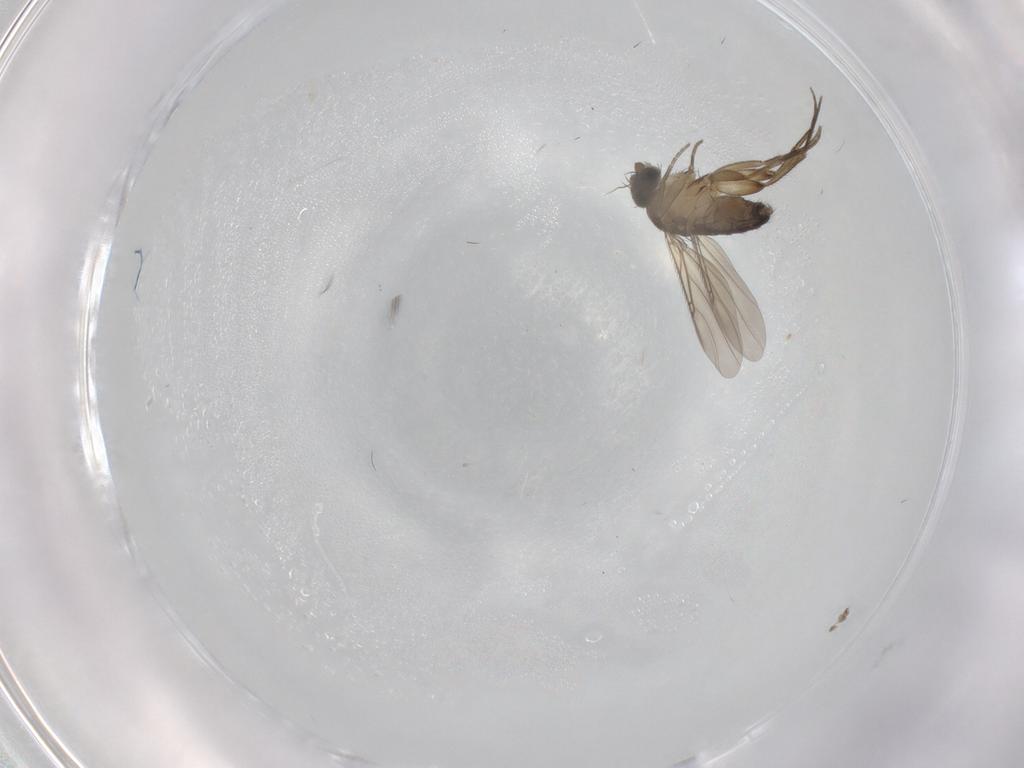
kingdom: Animalia
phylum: Arthropoda
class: Insecta
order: Diptera
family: Phoridae
